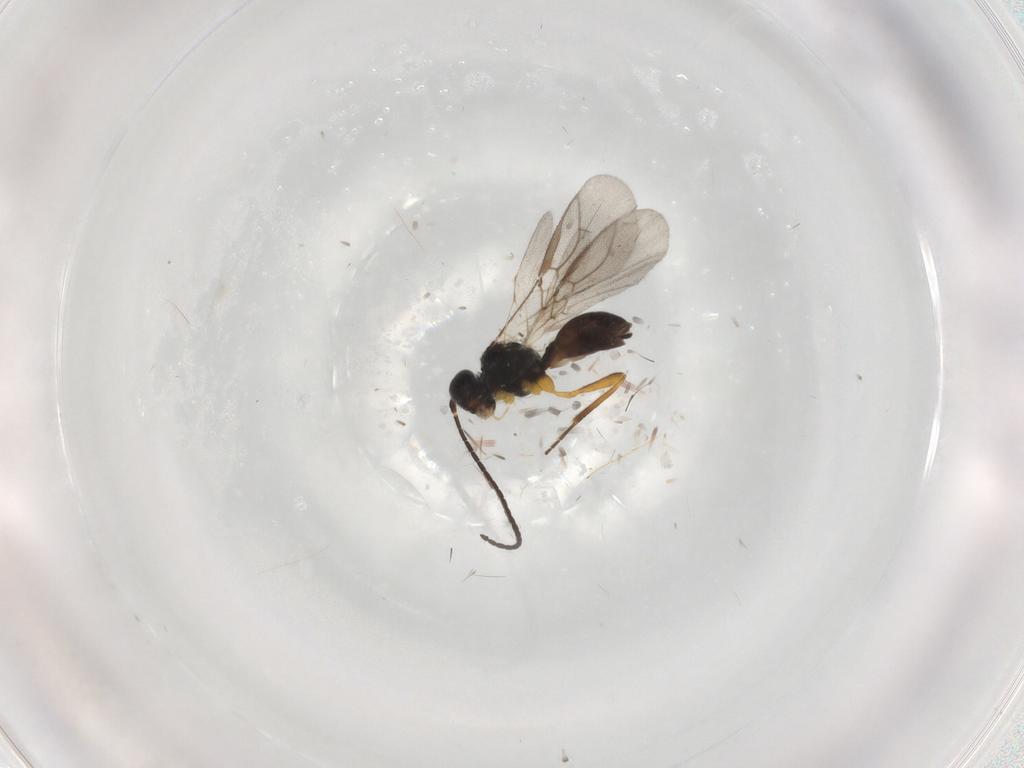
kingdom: Animalia
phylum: Arthropoda
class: Insecta
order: Hymenoptera
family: Braconidae
